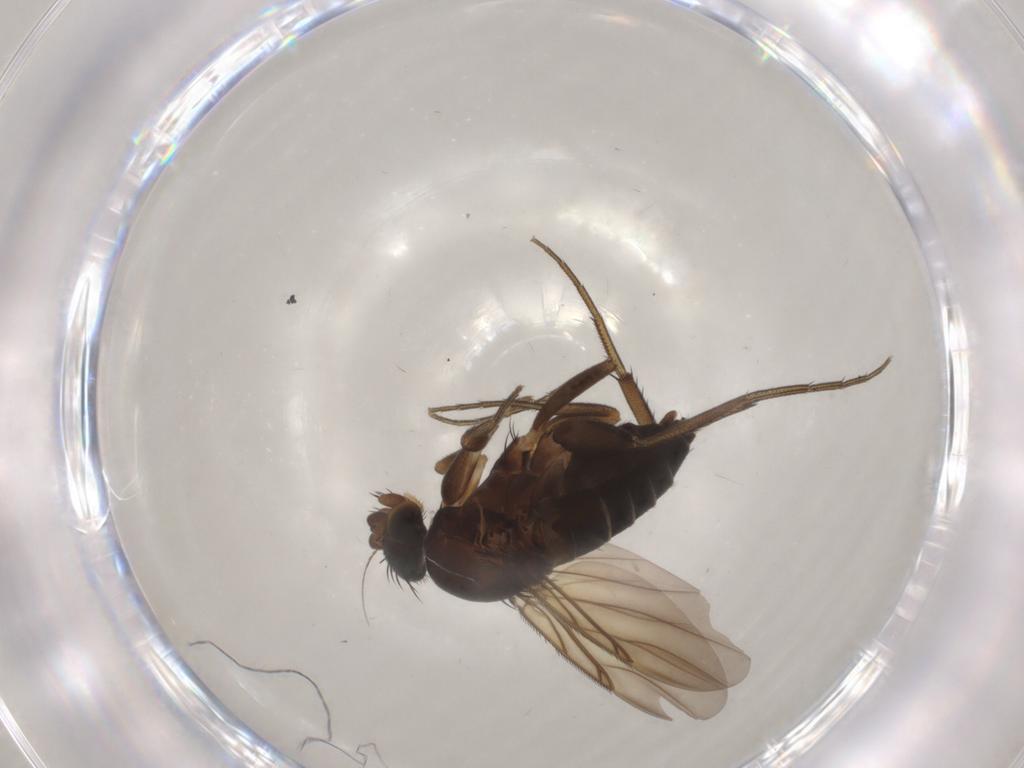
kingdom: Animalia
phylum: Arthropoda
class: Insecta
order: Diptera
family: Phoridae
